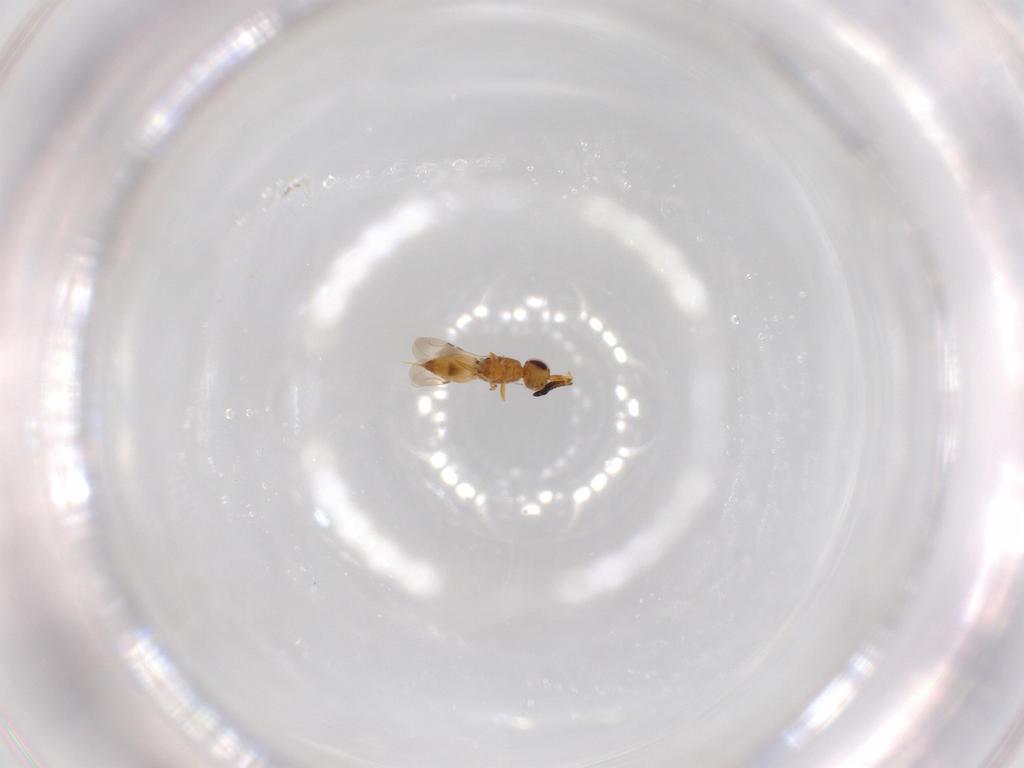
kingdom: Animalia
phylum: Arthropoda
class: Insecta
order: Hymenoptera
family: Ceraphronidae
